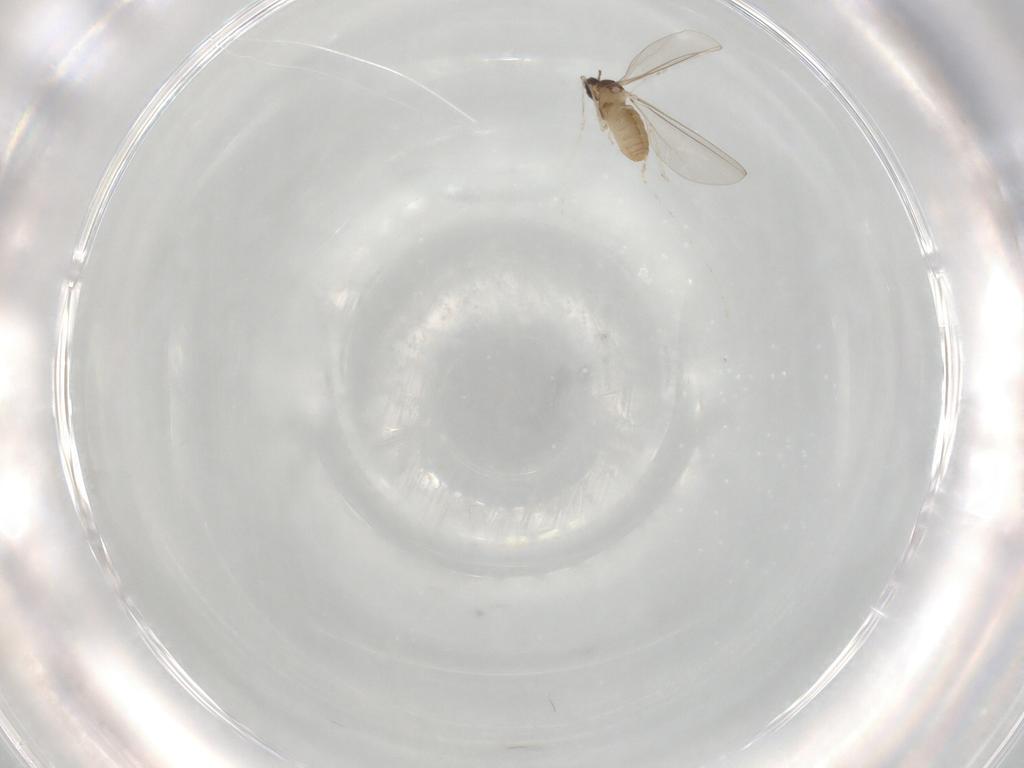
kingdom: Animalia
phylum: Arthropoda
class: Insecta
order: Diptera
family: Cecidomyiidae
